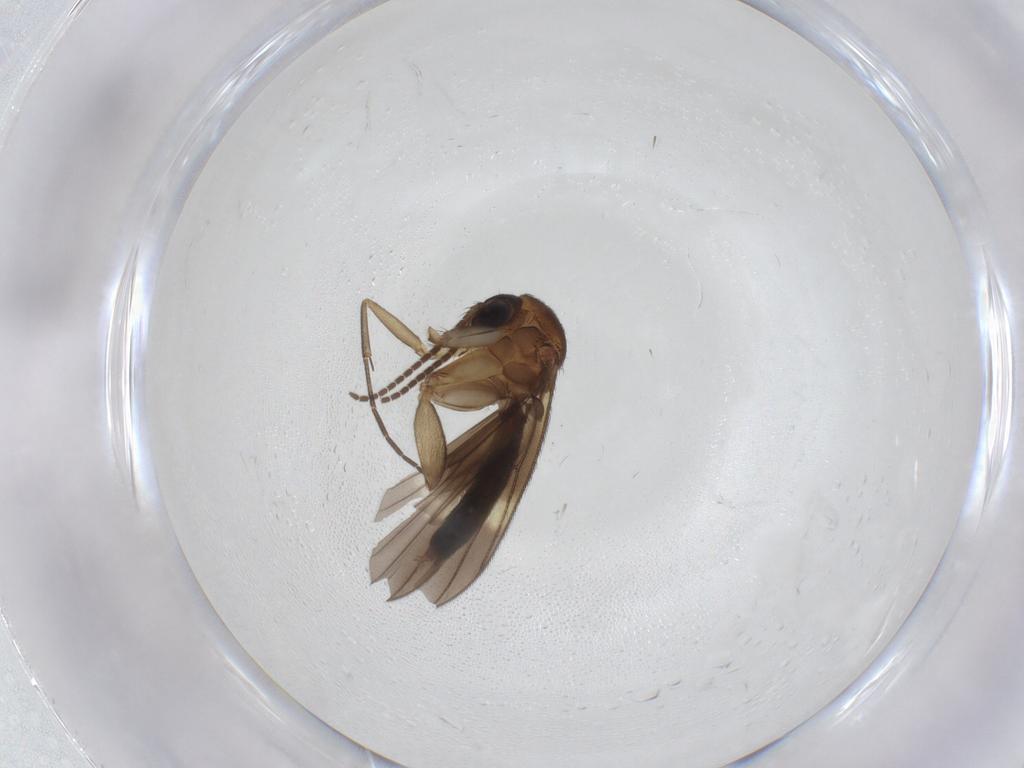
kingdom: Animalia
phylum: Arthropoda
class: Insecta
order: Diptera
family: Mycetophilidae
